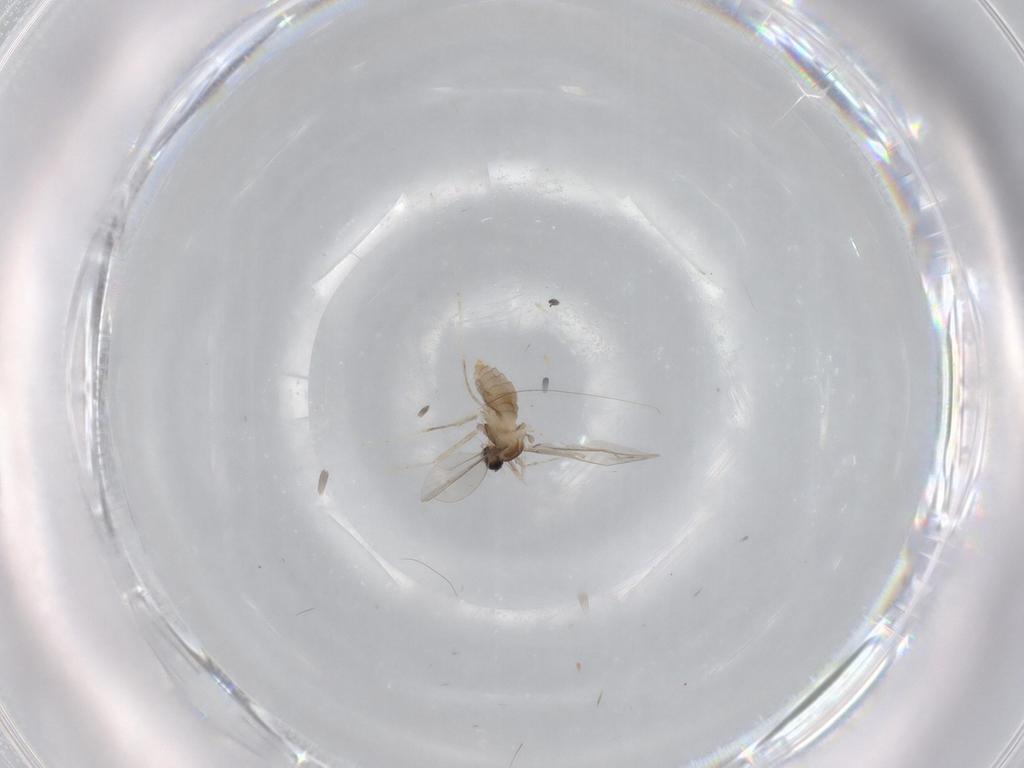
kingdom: Animalia
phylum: Arthropoda
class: Insecta
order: Diptera
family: Cecidomyiidae
